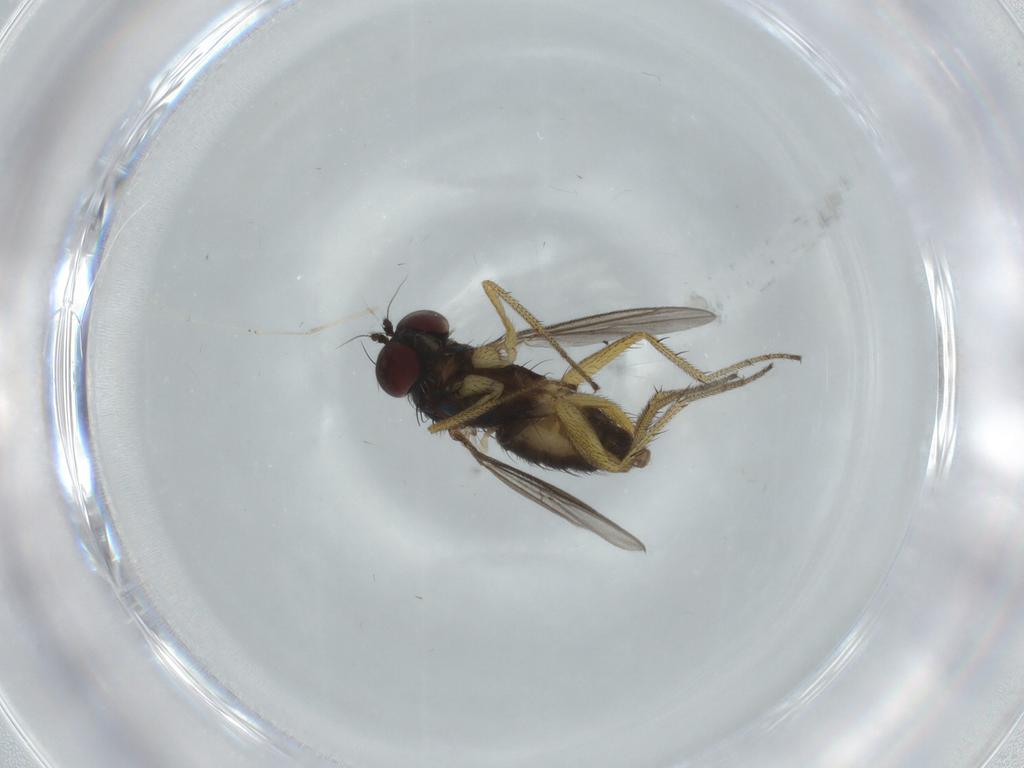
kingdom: Animalia
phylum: Arthropoda
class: Insecta
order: Diptera
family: Dolichopodidae
